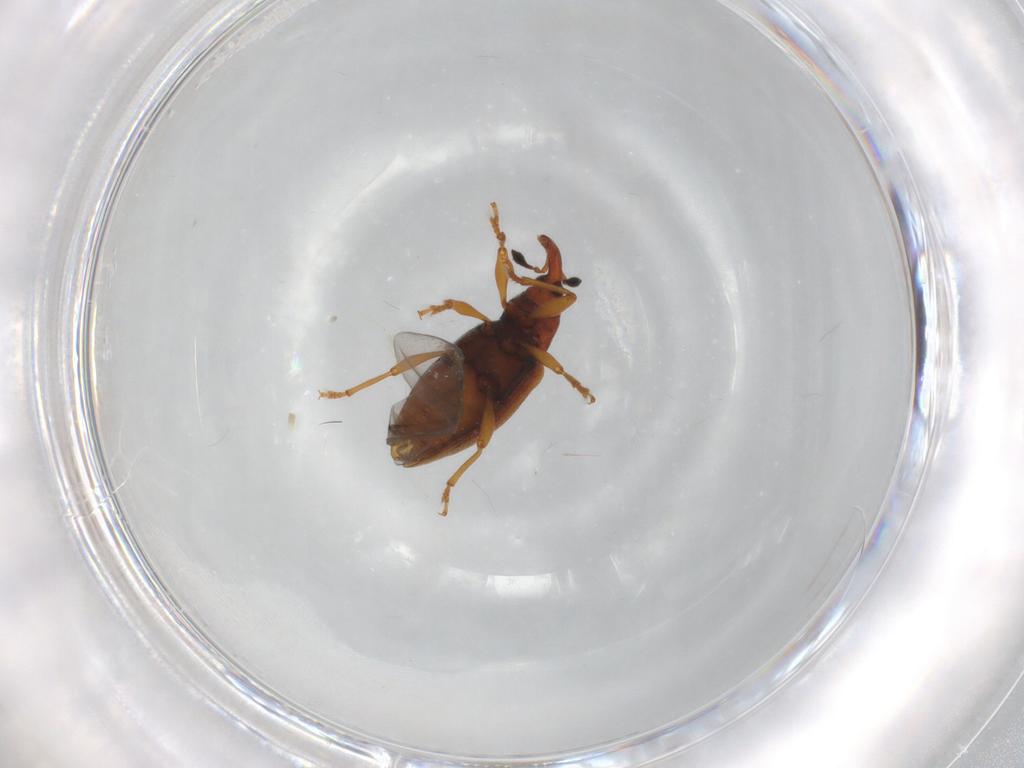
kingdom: Animalia
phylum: Arthropoda
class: Insecta
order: Coleoptera
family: Curculionidae
